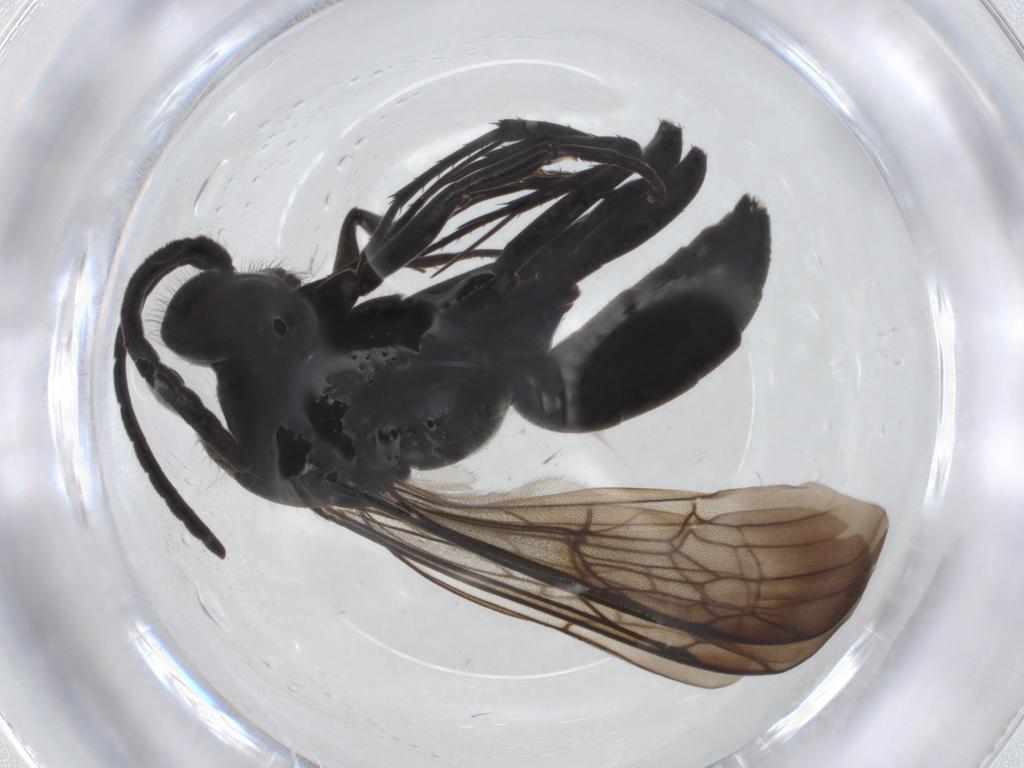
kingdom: Animalia
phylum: Arthropoda
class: Insecta
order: Hymenoptera
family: Pompilidae
